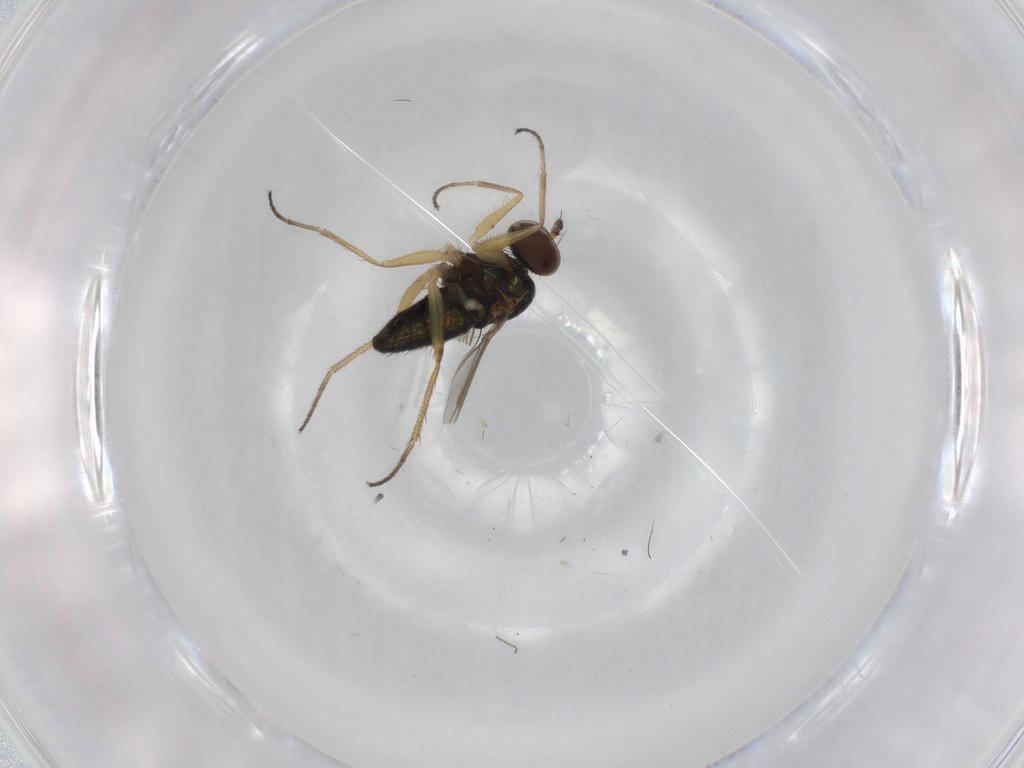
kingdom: Animalia
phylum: Arthropoda
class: Insecta
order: Diptera
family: Dolichopodidae
